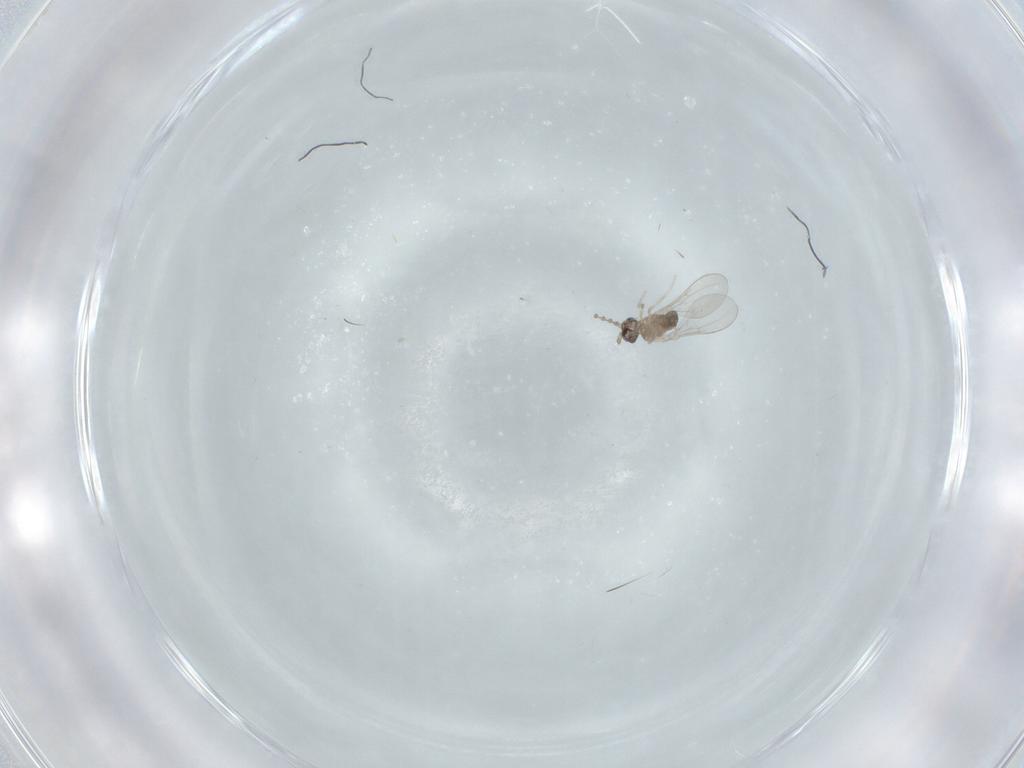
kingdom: Animalia
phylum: Arthropoda
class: Insecta
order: Diptera
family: Cecidomyiidae
